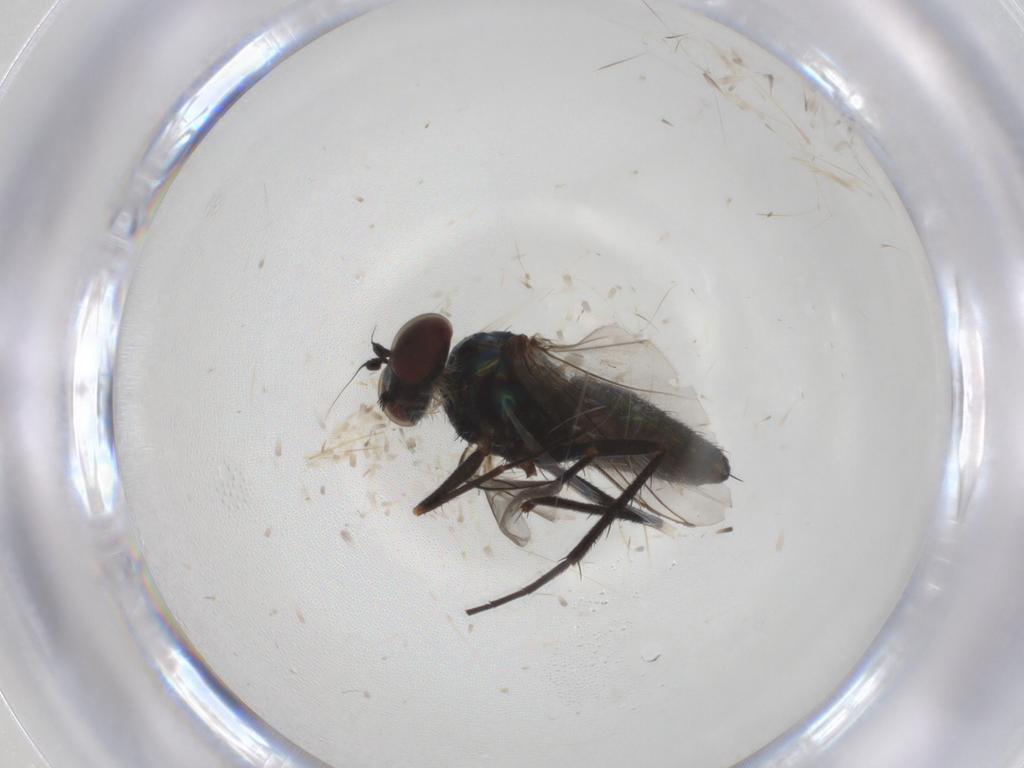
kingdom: Animalia
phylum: Arthropoda
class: Insecta
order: Diptera
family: Dolichopodidae
